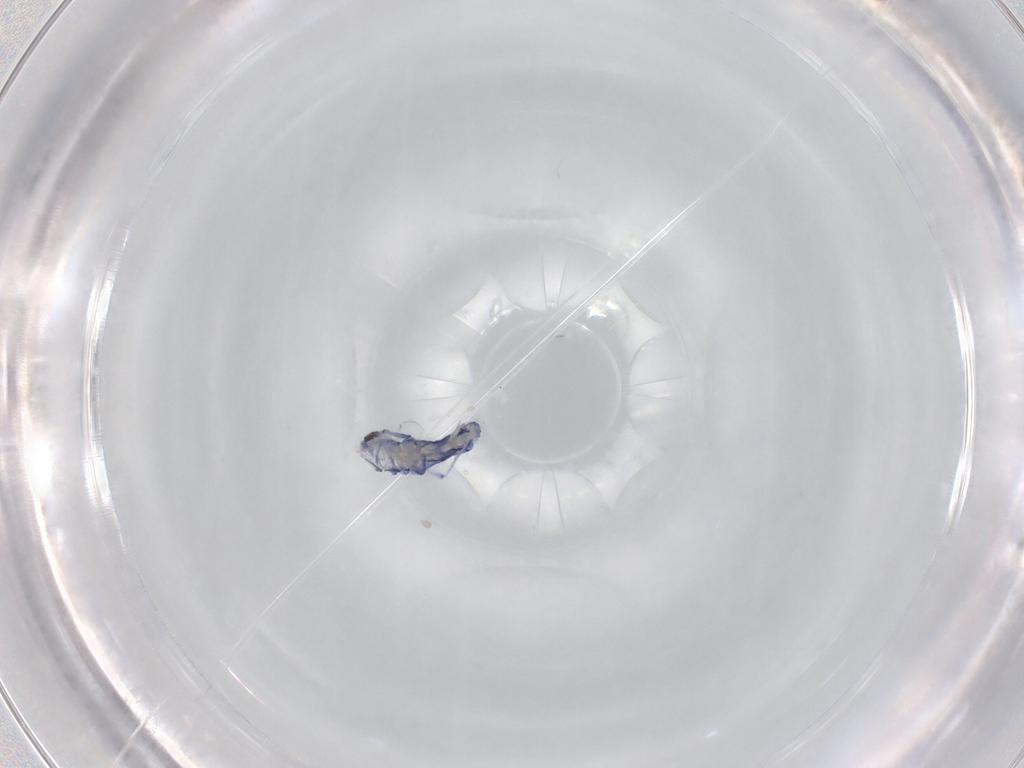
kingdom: Animalia
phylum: Arthropoda
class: Collembola
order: Entomobryomorpha
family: Entomobryidae
